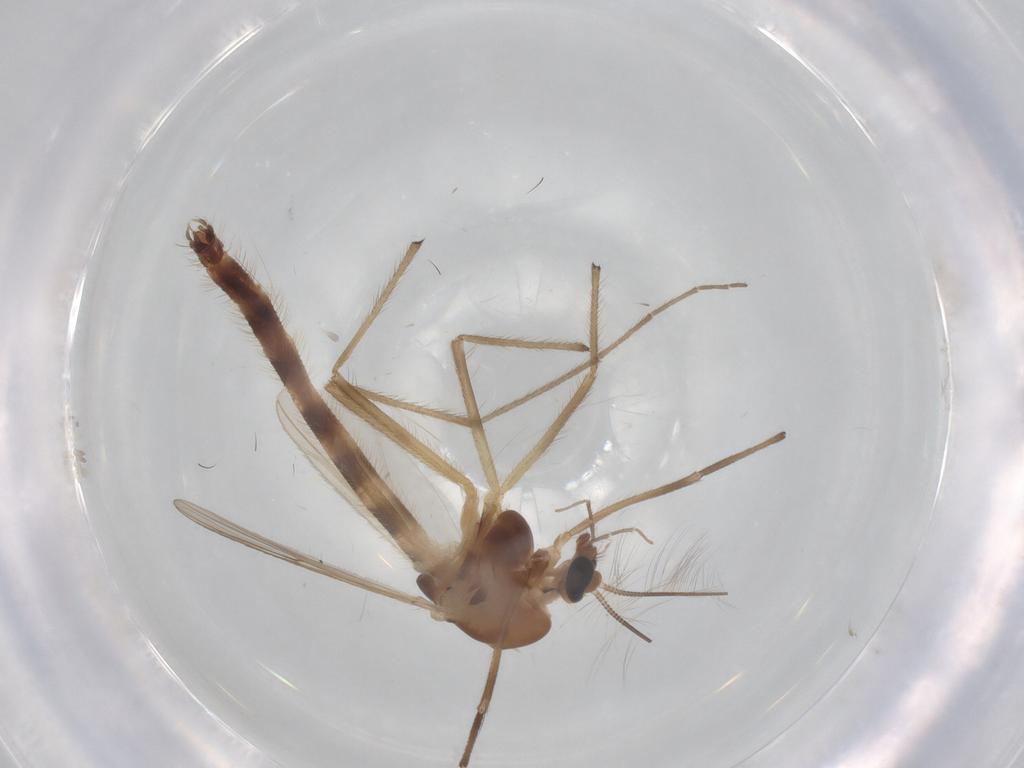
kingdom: Animalia
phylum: Arthropoda
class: Insecta
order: Diptera
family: Chironomidae
